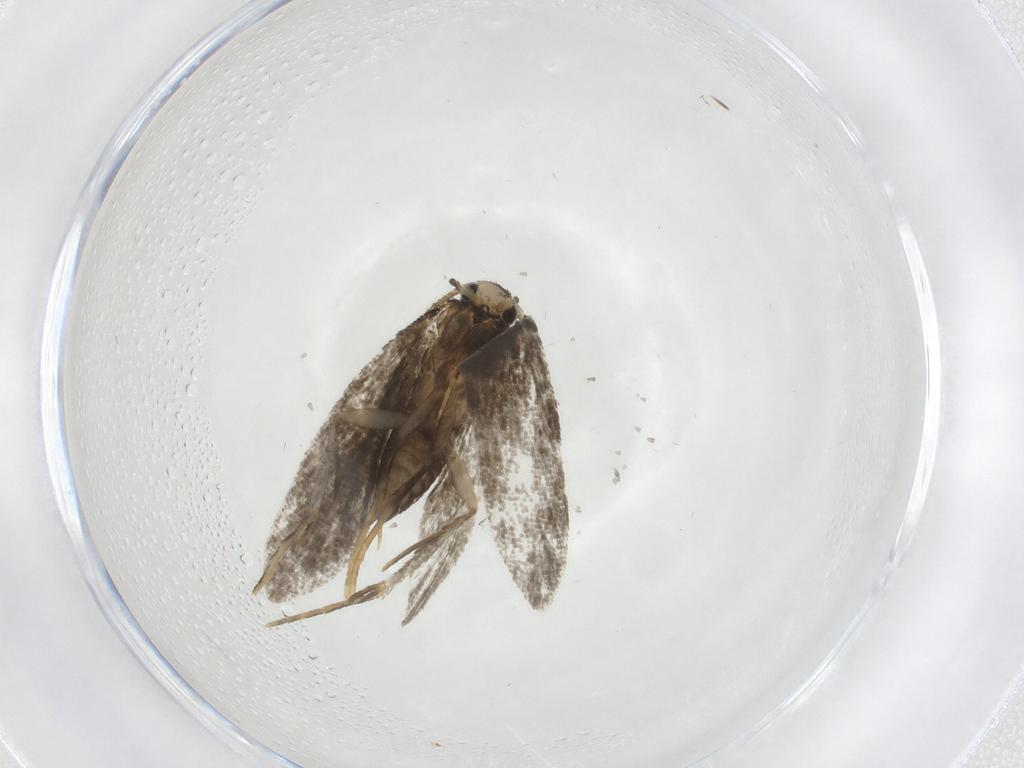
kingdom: Animalia
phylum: Arthropoda
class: Insecta
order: Lepidoptera
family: Psychidae
